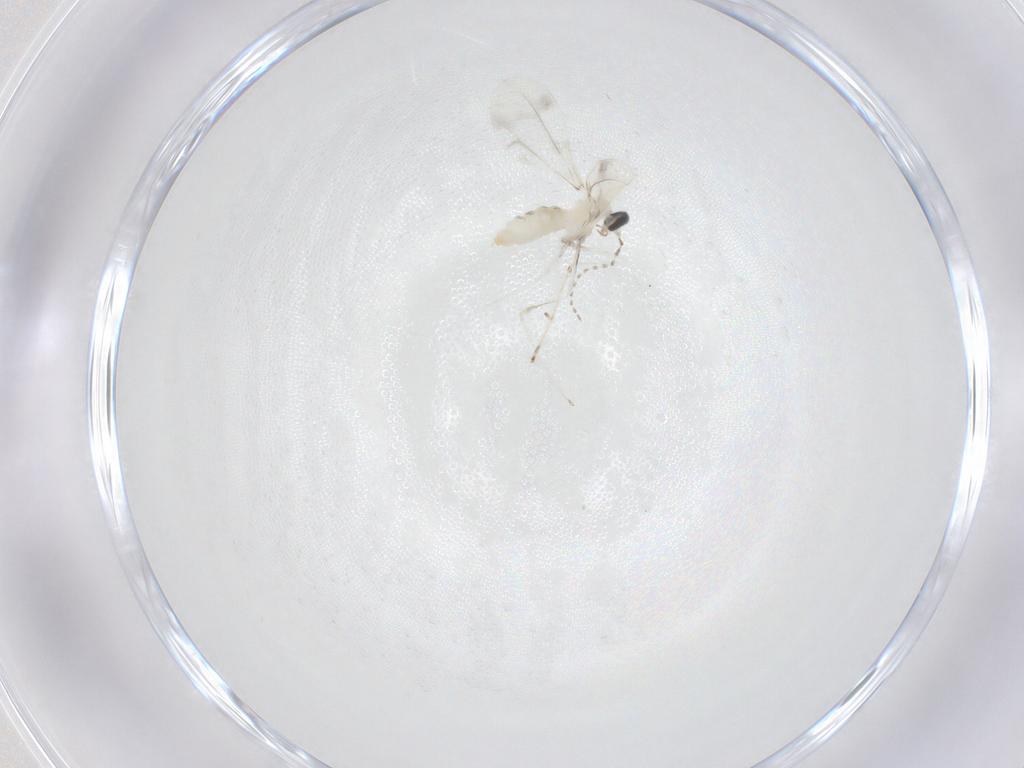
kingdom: Animalia
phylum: Arthropoda
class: Insecta
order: Diptera
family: Cecidomyiidae
